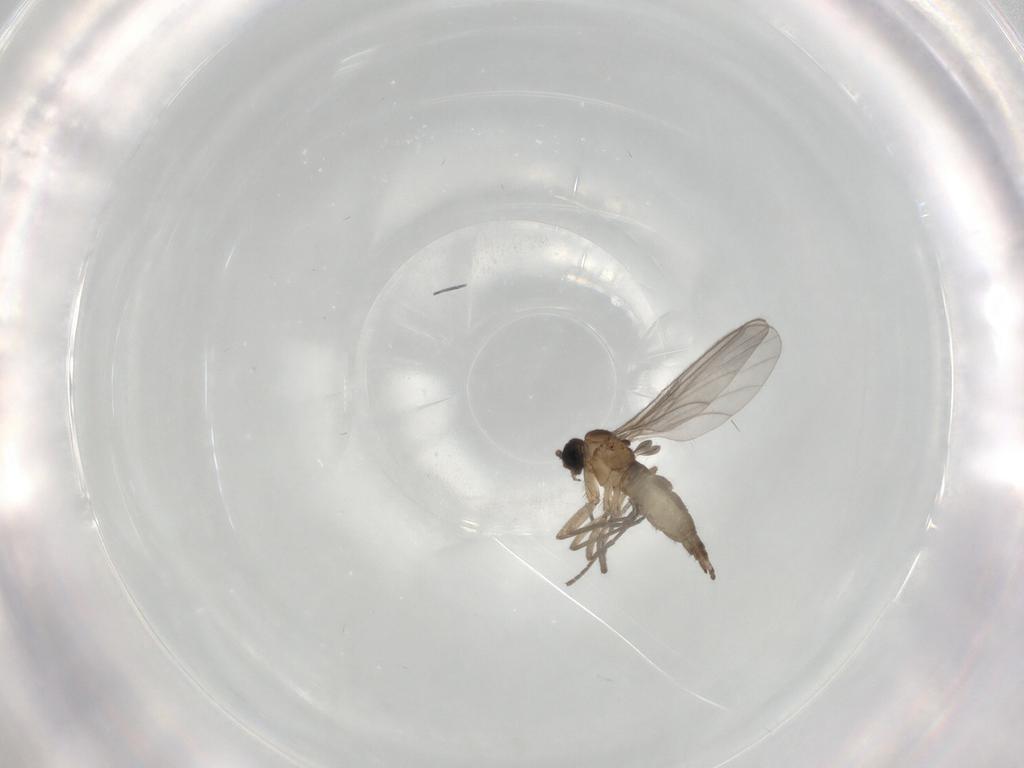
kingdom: Animalia
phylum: Arthropoda
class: Insecta
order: Diptera
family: Sciaridae
